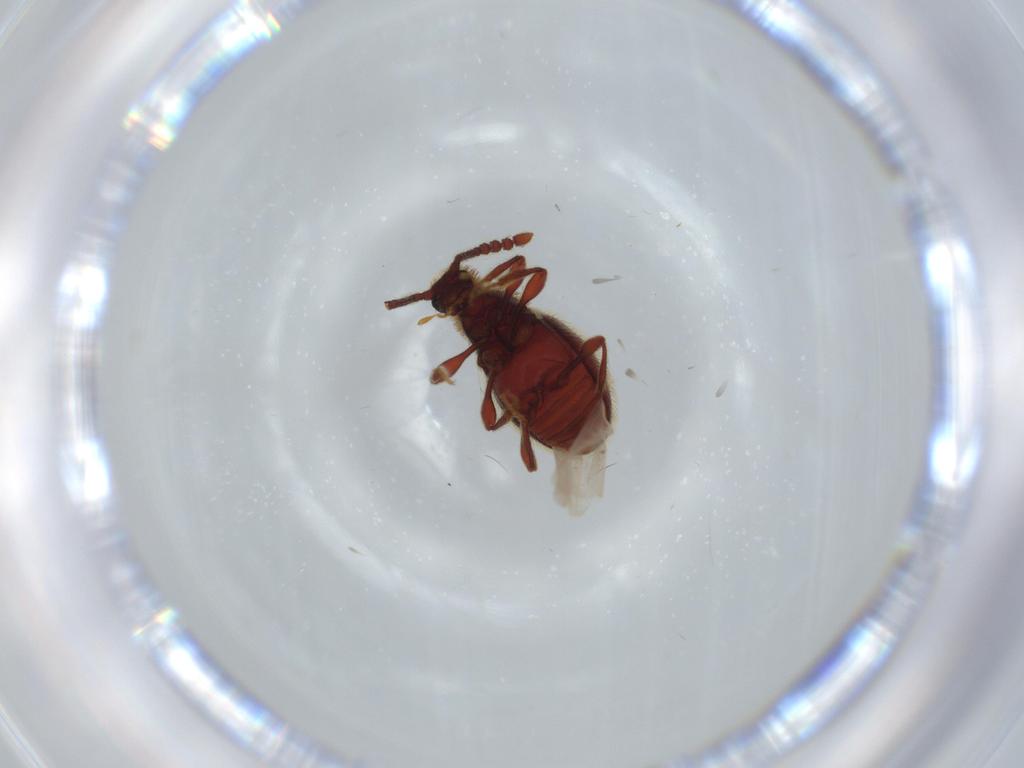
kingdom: Animalia
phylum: Arthropoda
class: Insecta
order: Coleoptera
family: Staphylinidae
